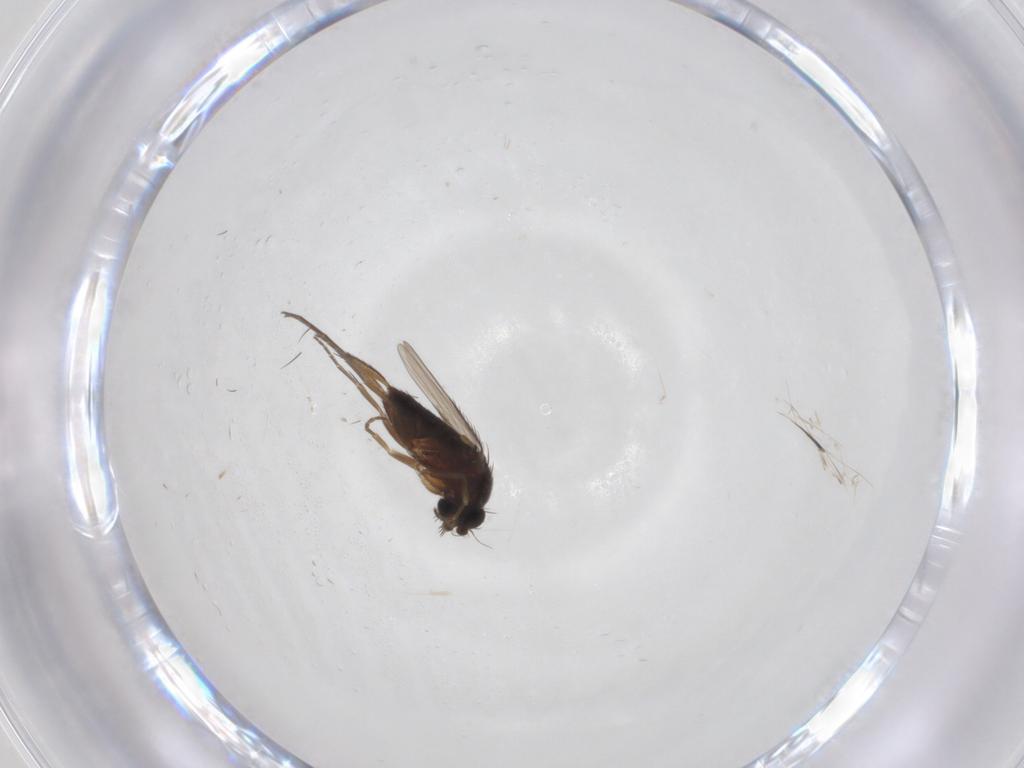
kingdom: Animalia
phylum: Arthropoda
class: Insecta
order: Diptera
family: Phoridae
